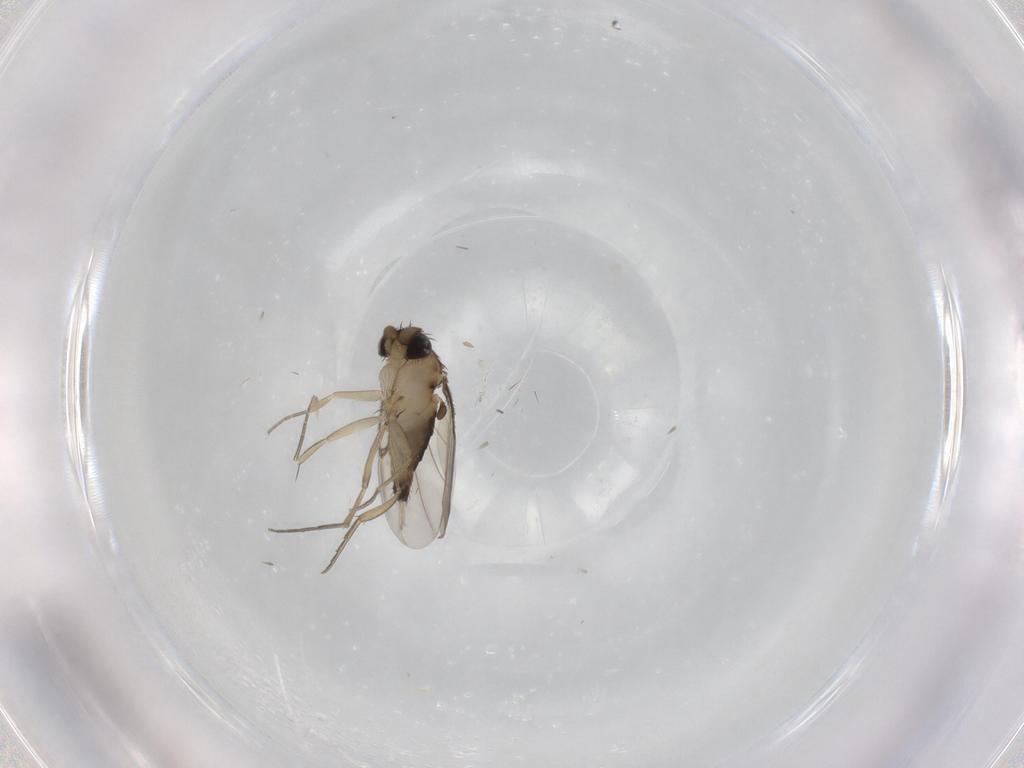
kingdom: Animalia
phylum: Arthropoda
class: Insecta
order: Diptera
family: Phoridae
